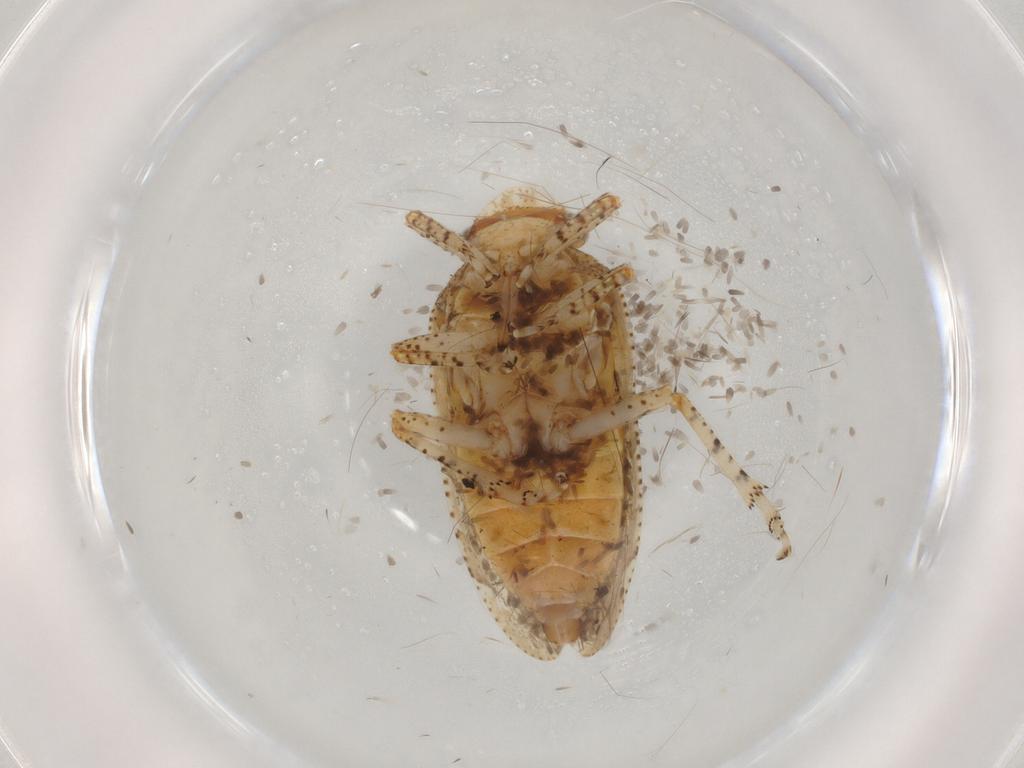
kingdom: Animalia
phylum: Arthropoda
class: Insecta
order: Hemiptera
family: Tettigometridae
